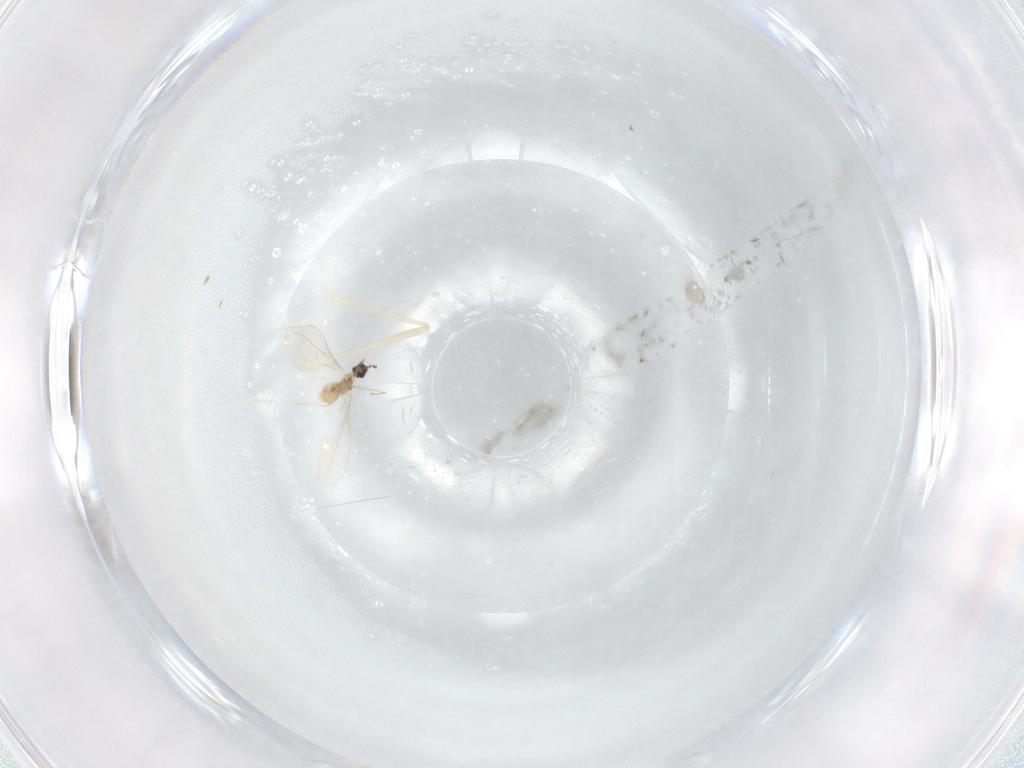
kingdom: Animalia
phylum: Arthropoda
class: Insecta
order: Diptera
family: Cecidomyiidae
